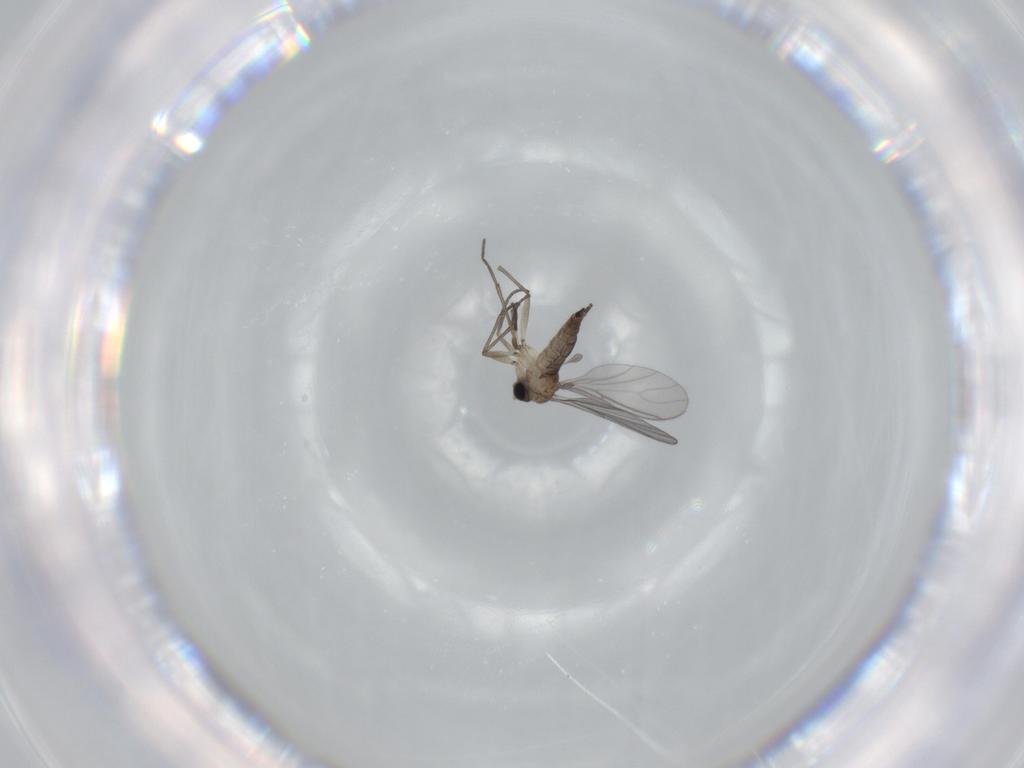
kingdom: Animalia
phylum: Arthropoda
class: Insecta
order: Diptera
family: Sciaridae
